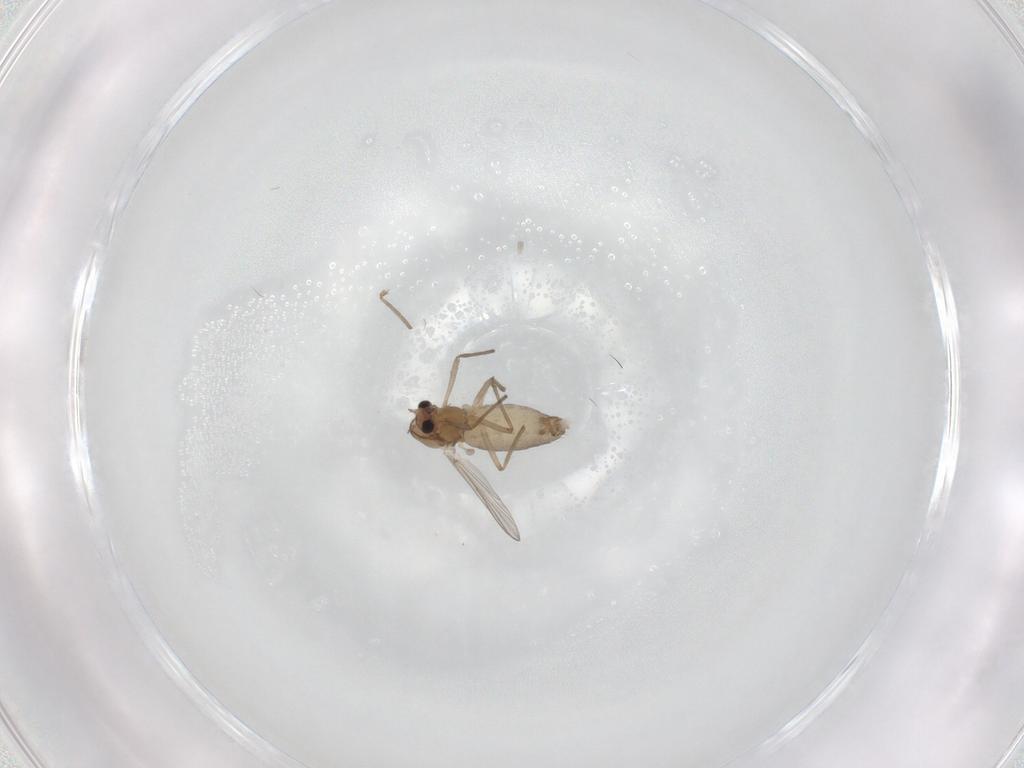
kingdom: Animalia
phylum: Arthropoda
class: Insecta
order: Diptera
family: Chironomidae
